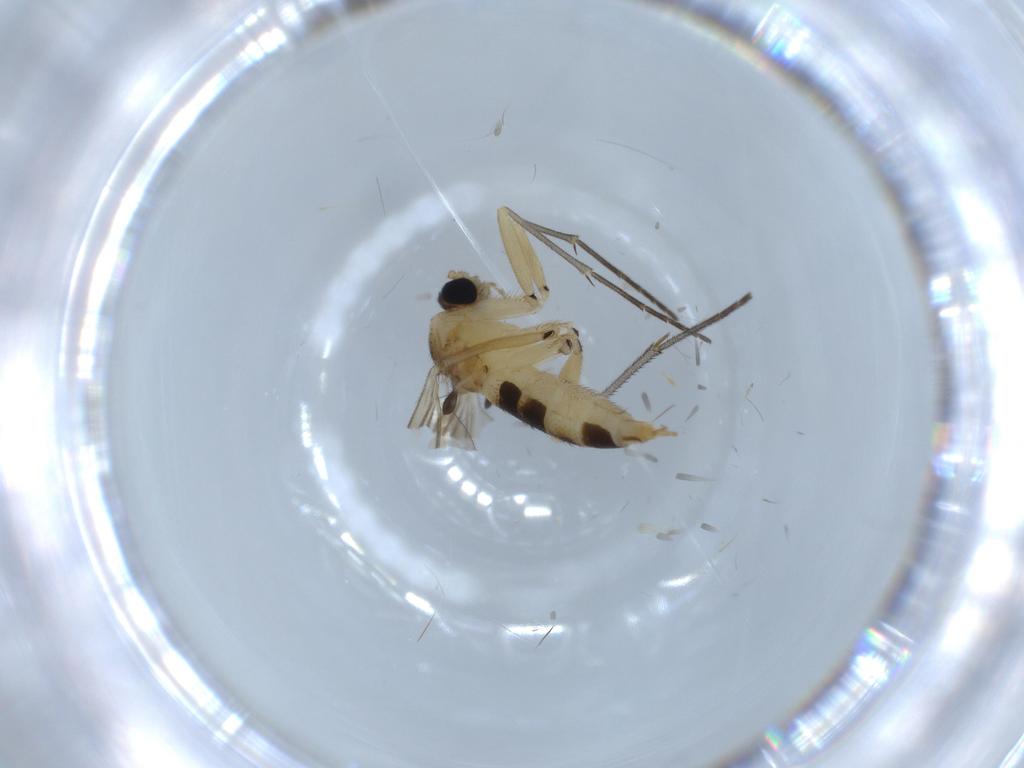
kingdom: Animalia
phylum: Arthropoda
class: Insecta
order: Diptera
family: Sciaridae
